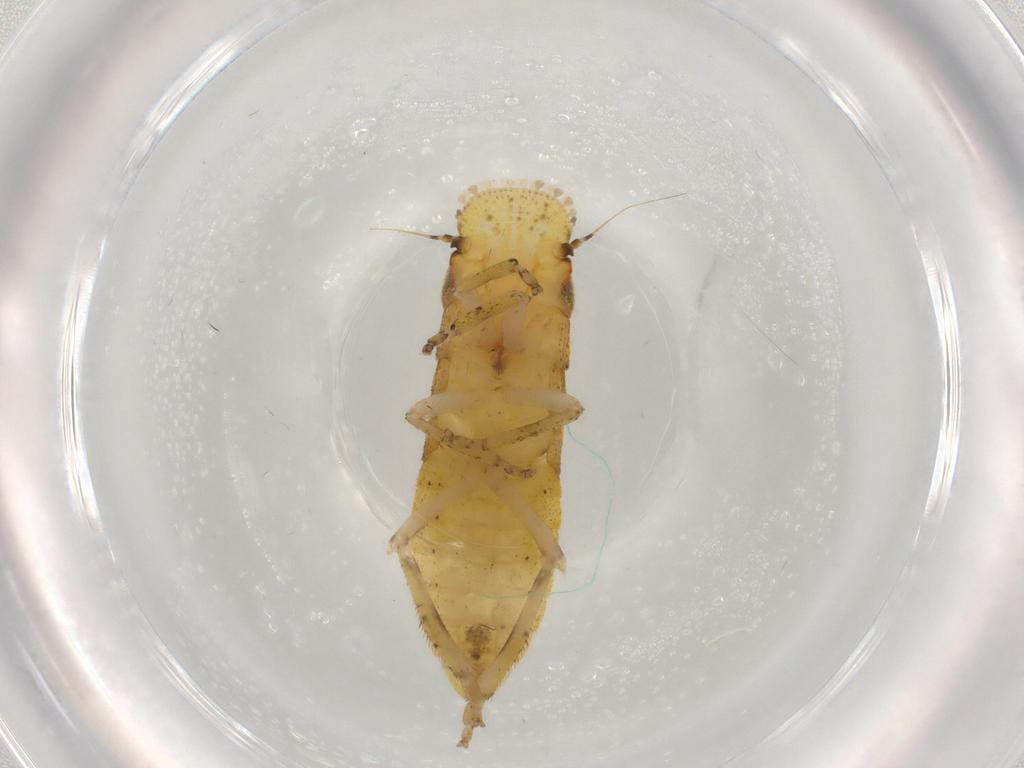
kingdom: Animalia
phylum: Arthropoda
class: Insecta
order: Hemiptera
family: Cicadellidae
